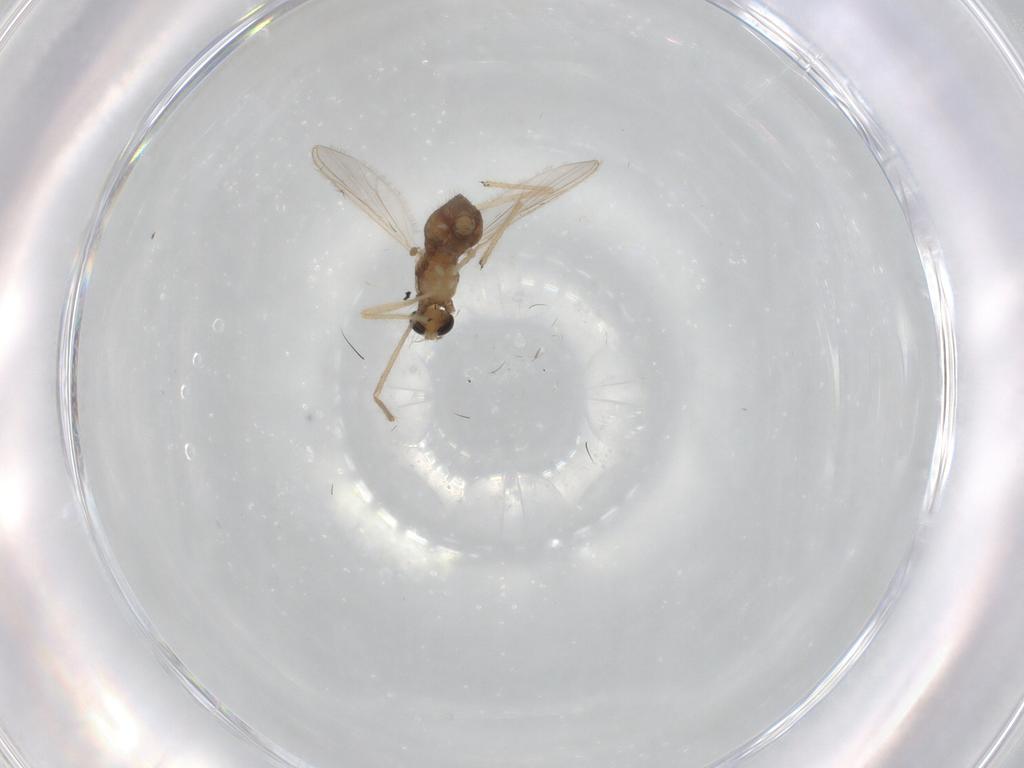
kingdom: Animalia
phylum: Arthropoda
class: Insecta
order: Diptera
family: Chironomidae
